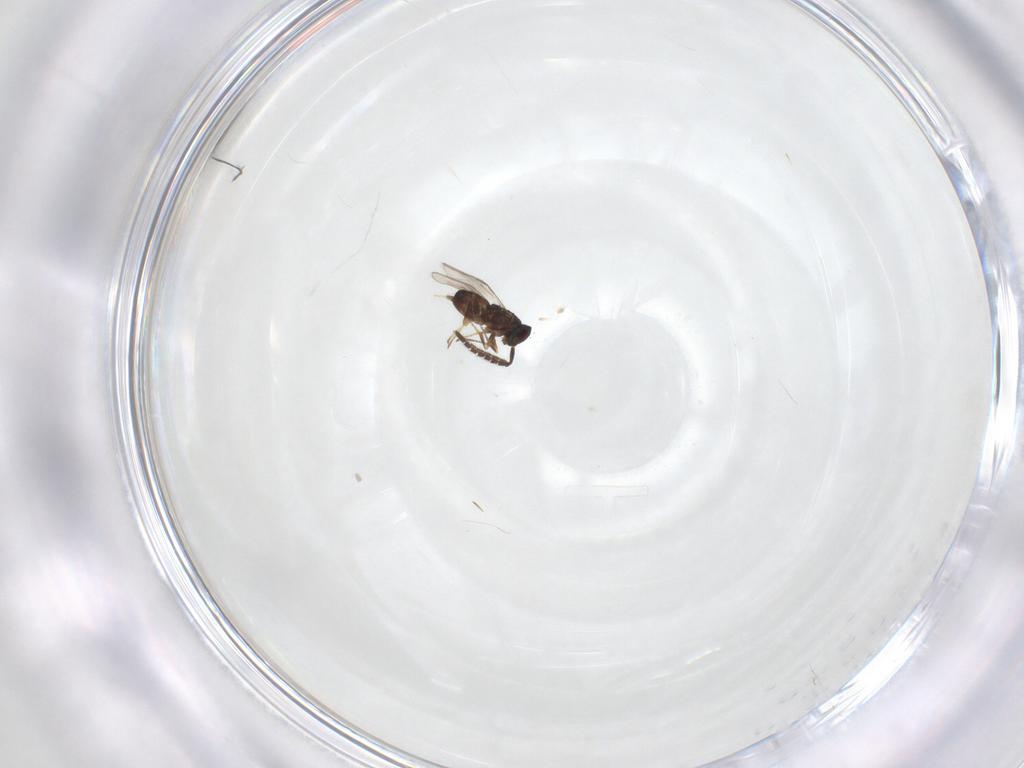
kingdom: Animalia
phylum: Arthropoda
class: Insecta
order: Hymenoptera
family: Encyrtidae
